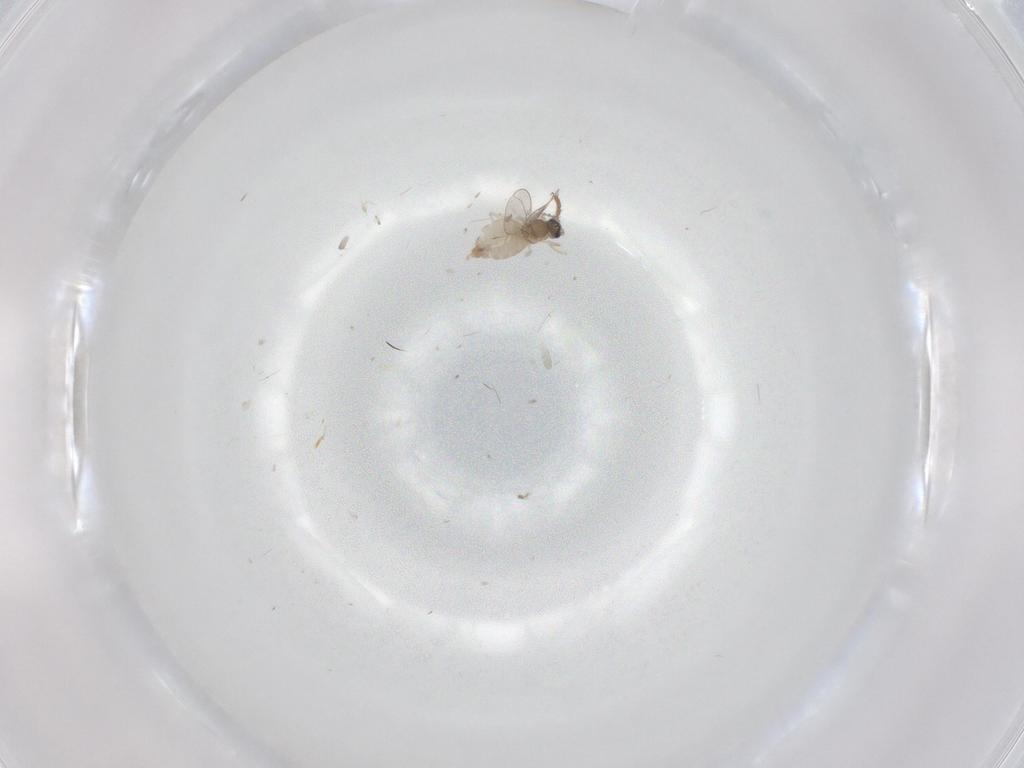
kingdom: Animalia
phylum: Arthropoda
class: Insecta
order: Diptera
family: Cecidomyiidae
